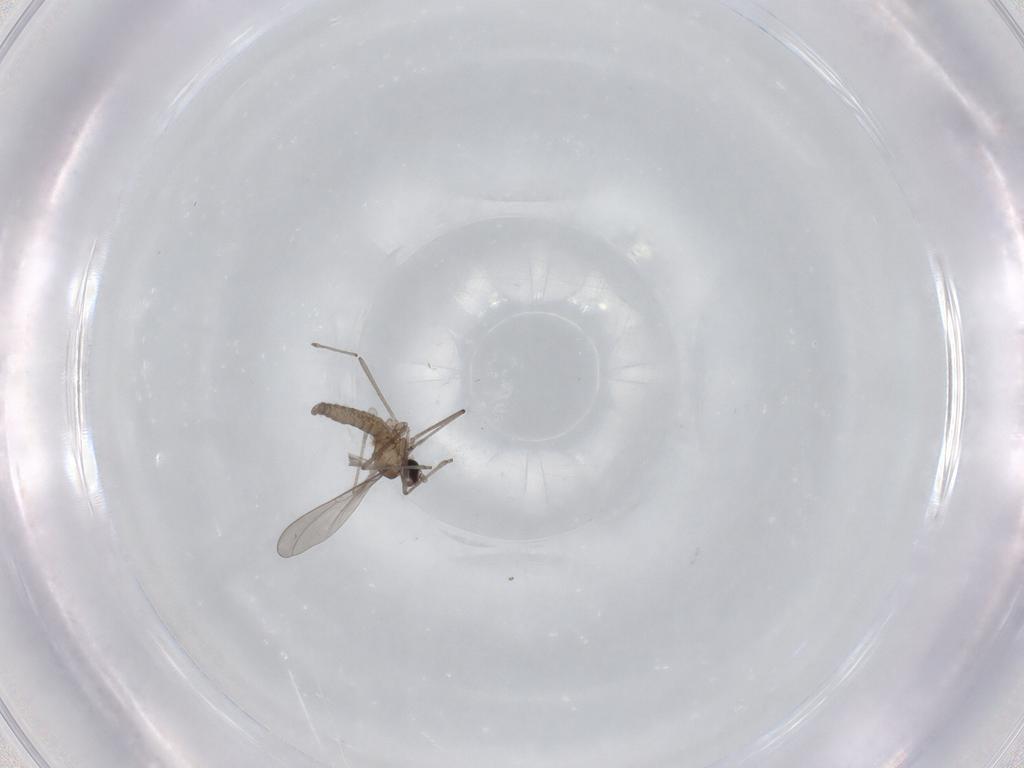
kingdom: Animalia
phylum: Arthropoda
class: Insecta
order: Diptera
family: Cecidomyiidae
